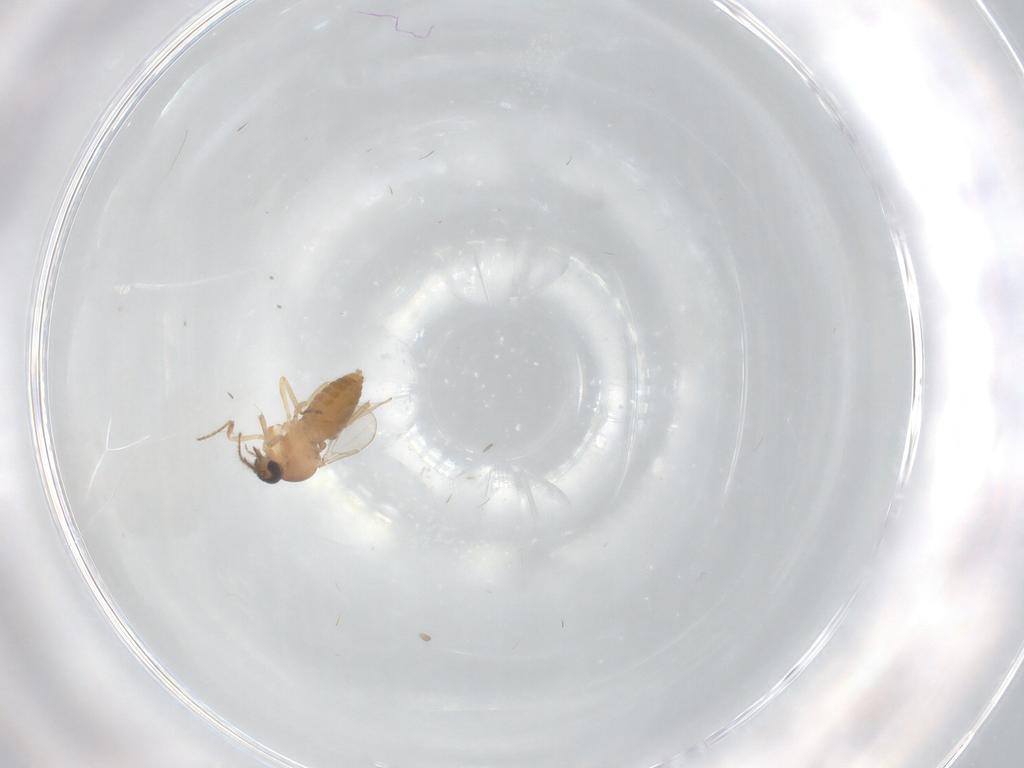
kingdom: Animalia
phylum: Arthropoda
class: Insecta
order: Diptera
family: Ceratopogonidae
